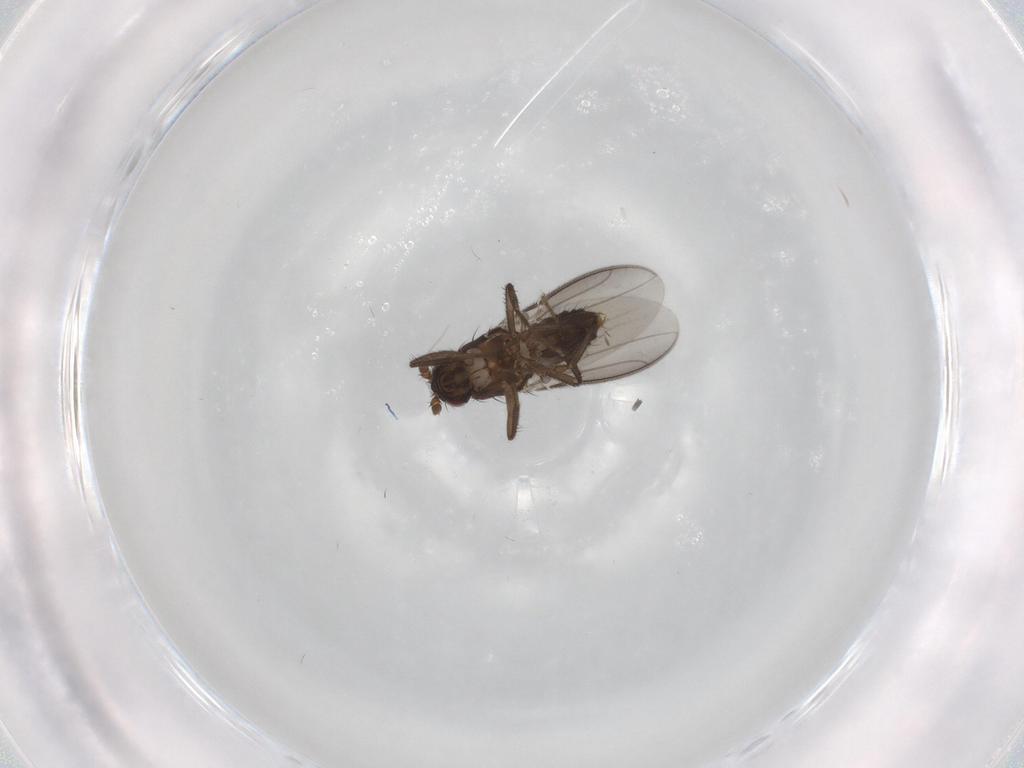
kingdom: Animalia
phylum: Arthropoda
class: Insecta
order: Diptera
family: Sphaeroceridae
